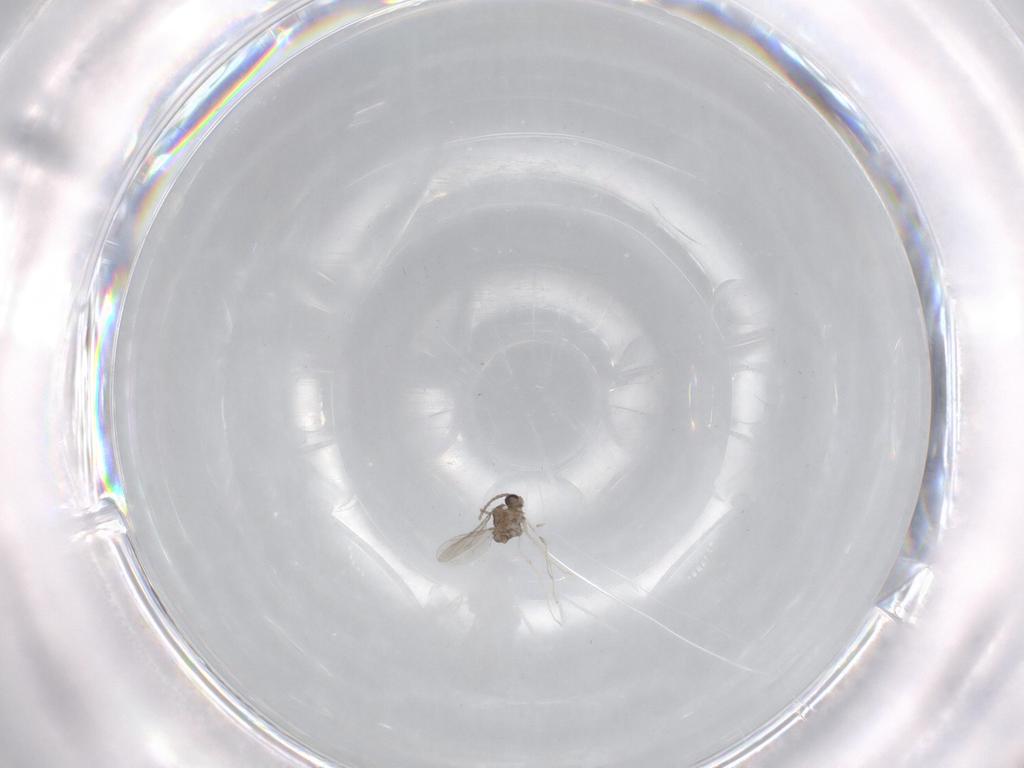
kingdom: Animalia
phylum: Arthropoda
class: Insecta
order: Diptera
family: Cecidomyiidae
